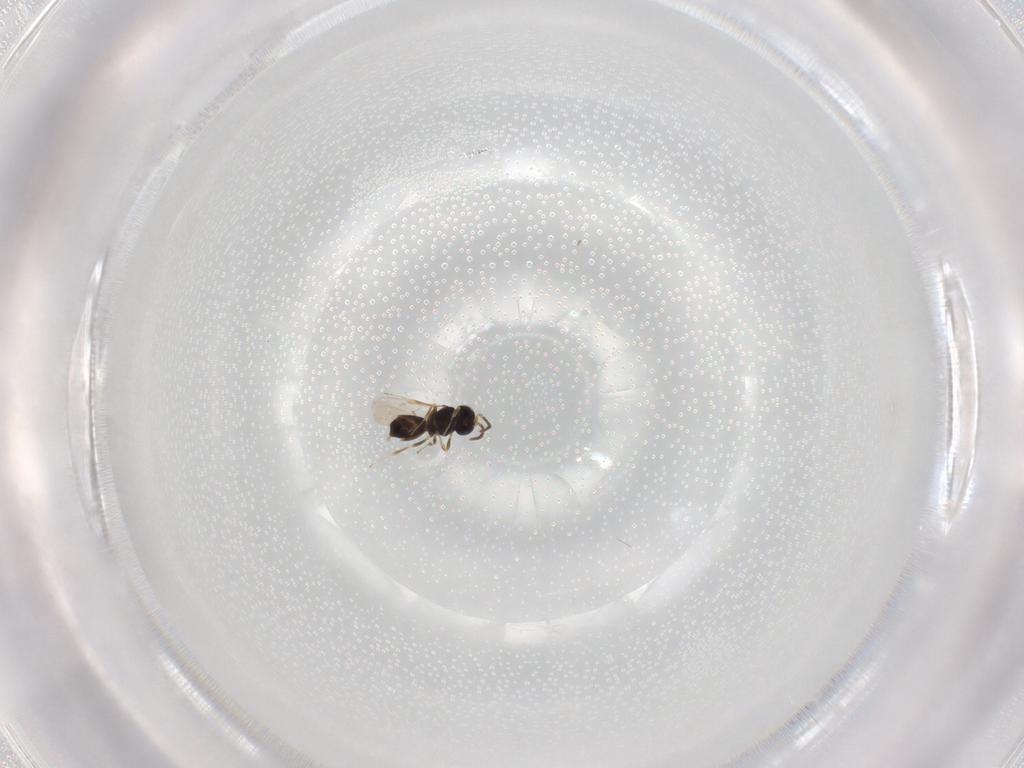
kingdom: Animalia
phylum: Arthropoda
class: Insecta
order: Hymenoptera
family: Scelionidae
